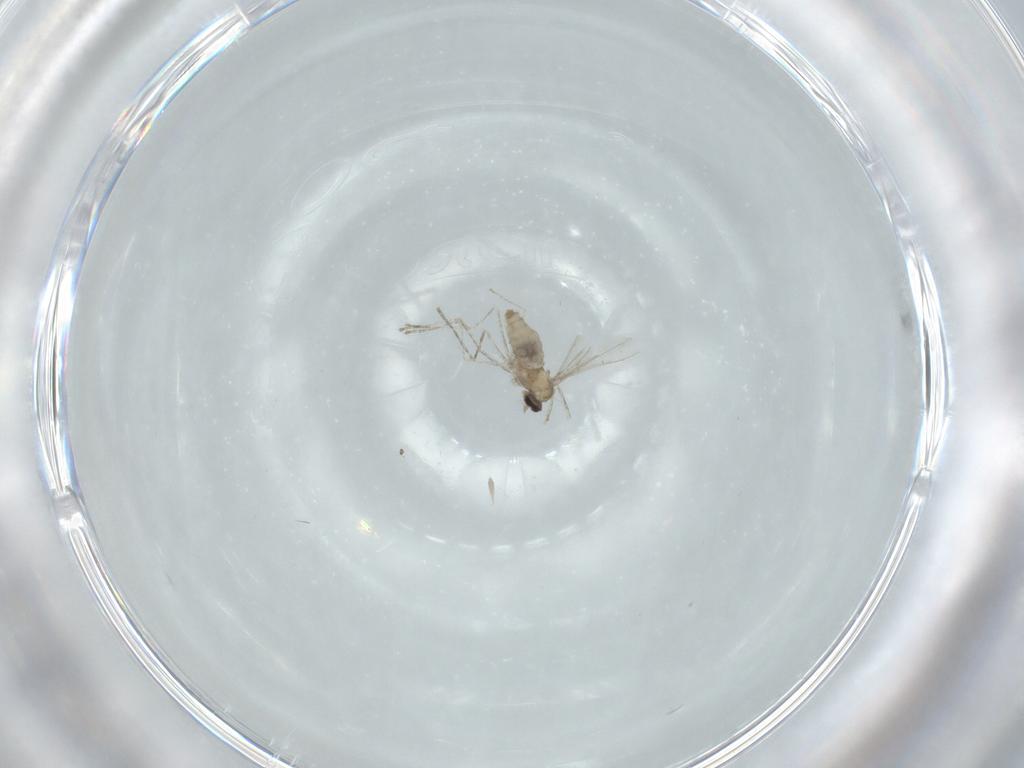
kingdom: Animalia
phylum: Arthropoda
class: Insecta
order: Diptera
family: Cecidomyiidae
